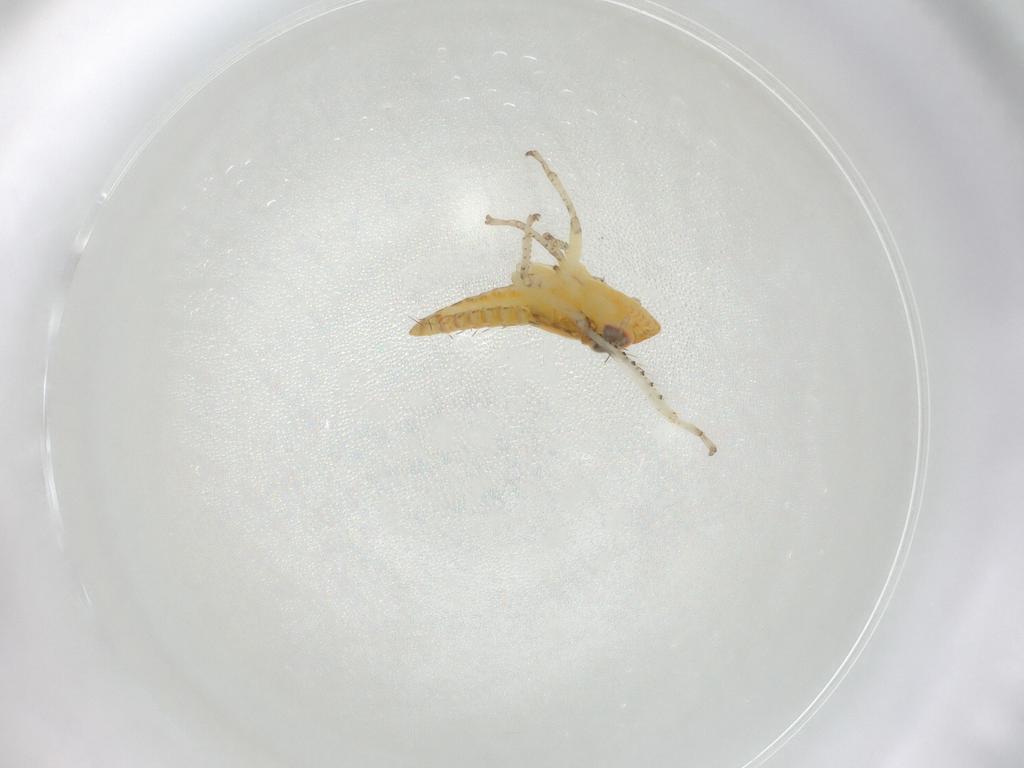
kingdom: Animalia
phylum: Arthropoda
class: Insecta
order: Hemiptera
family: Cicadellidae
